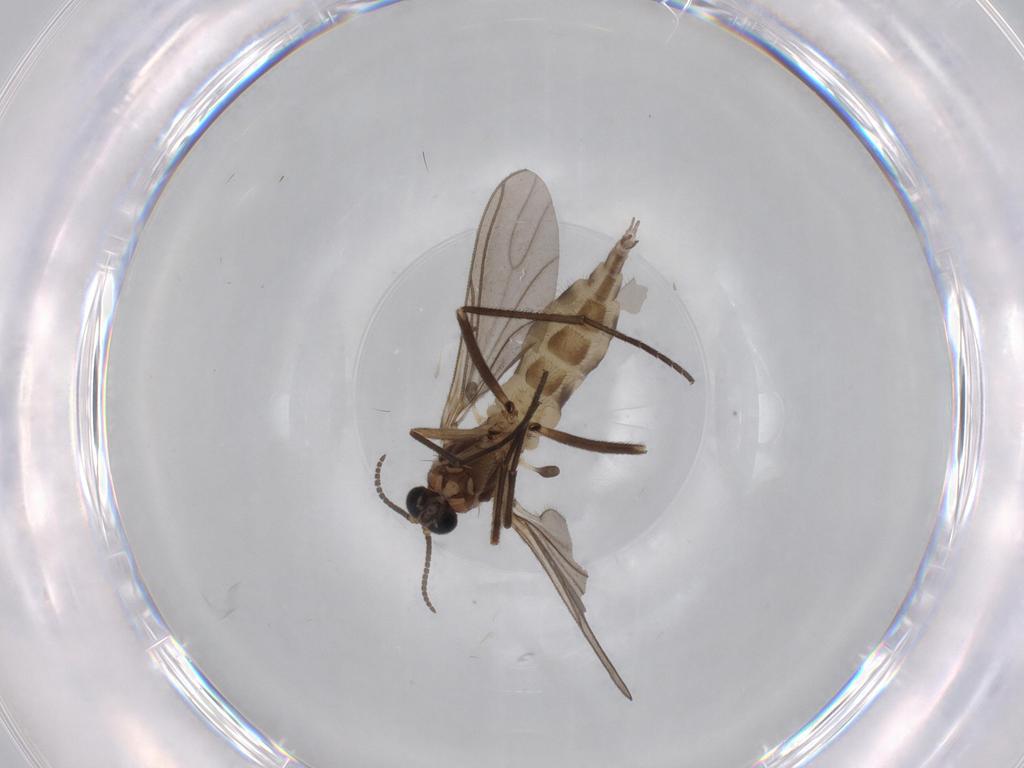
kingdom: Animalia
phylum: Arthropoda
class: Insecta
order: Diptera
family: Sciaridae
